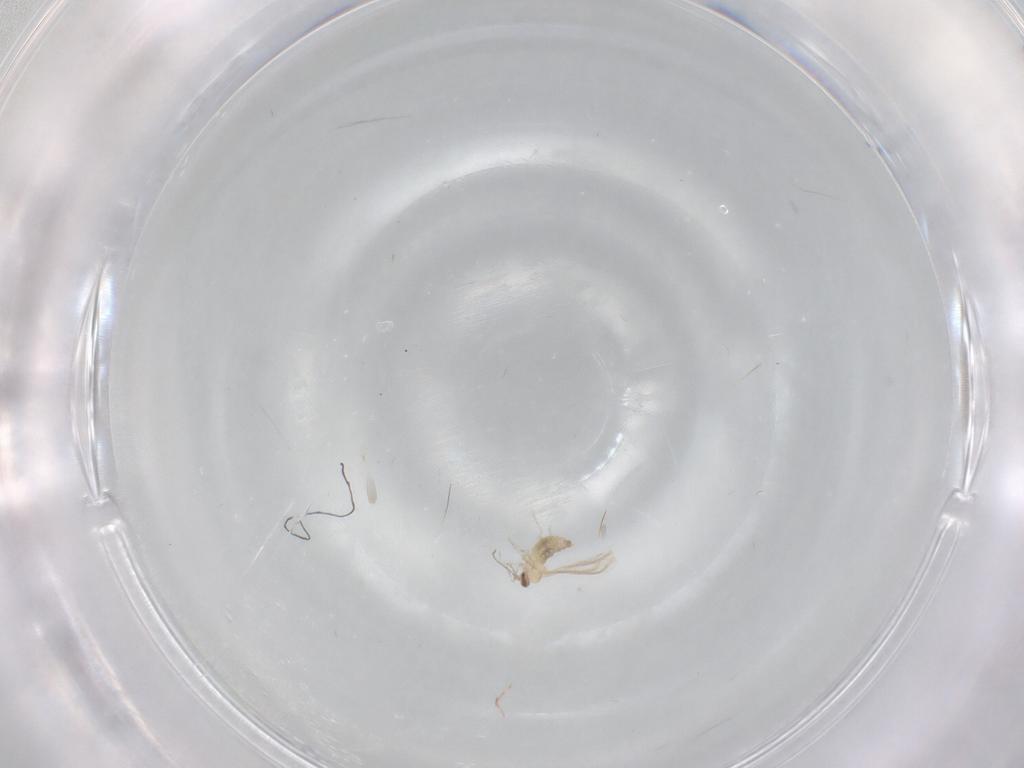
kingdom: Animalia
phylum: Arthropoda
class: Insecta
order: Diptera
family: Cecidomyiidae
